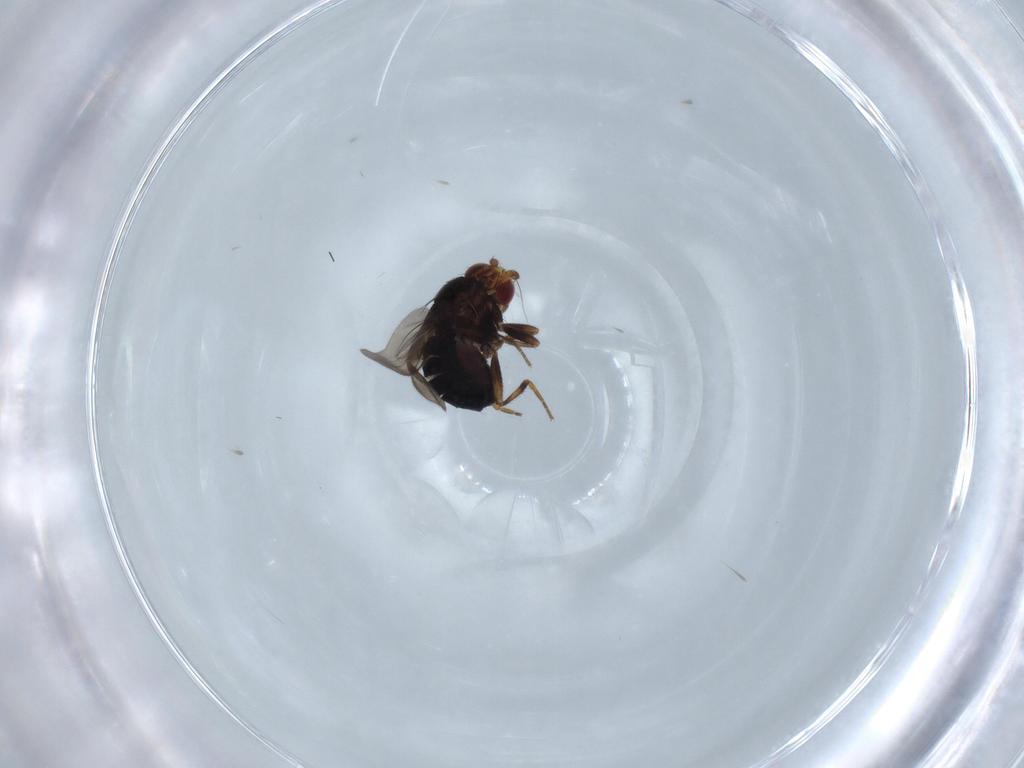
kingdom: Animalia
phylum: Arthropoda
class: Insecta
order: Diptera
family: Sphaeroceridae
